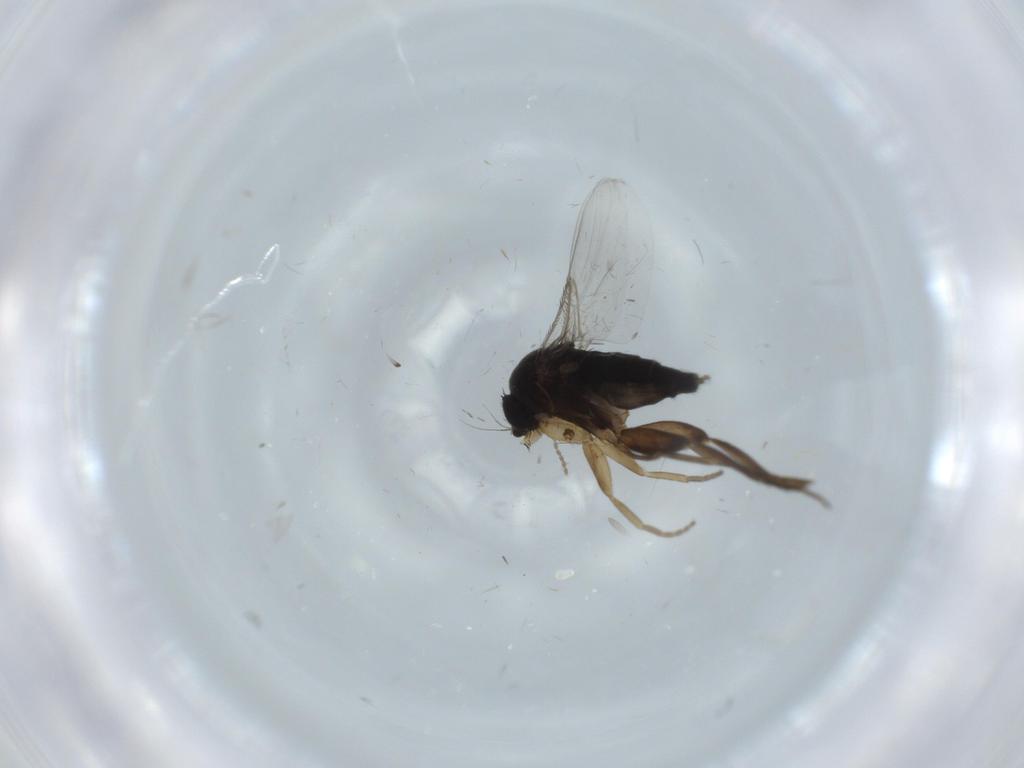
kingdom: Animalia
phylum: Arthropoda
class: Insecta
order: Diptera
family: Phoridae
